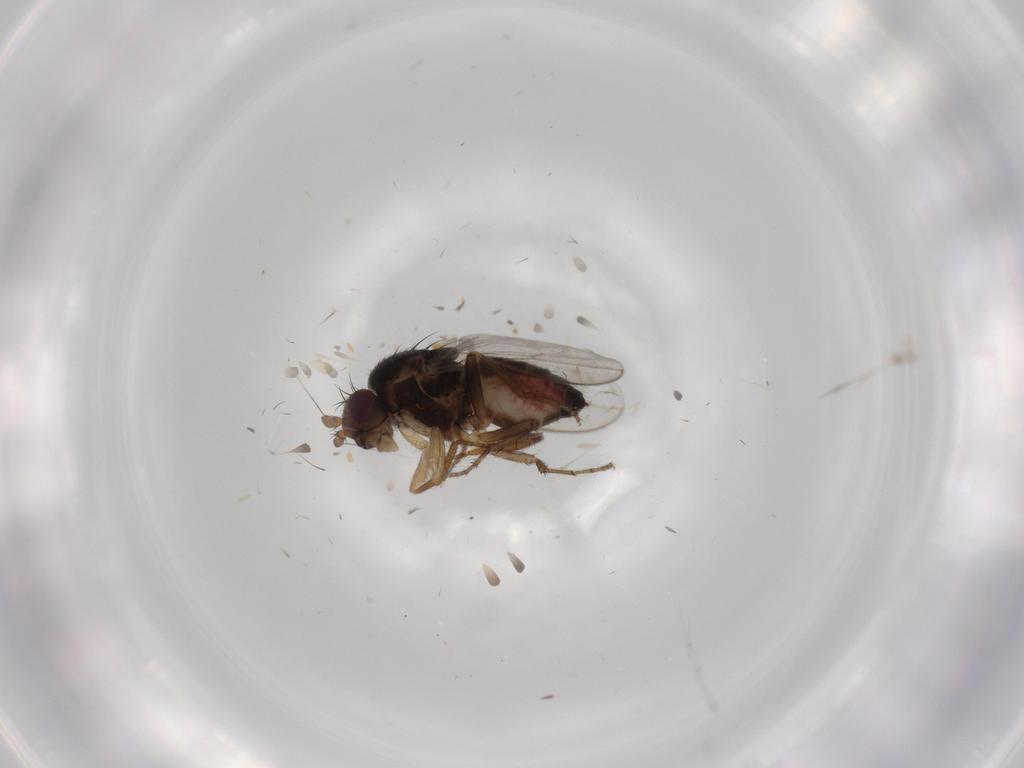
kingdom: Animalia
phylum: Arthropoda
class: Insecta
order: Diptera
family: Sphaeroceridae
